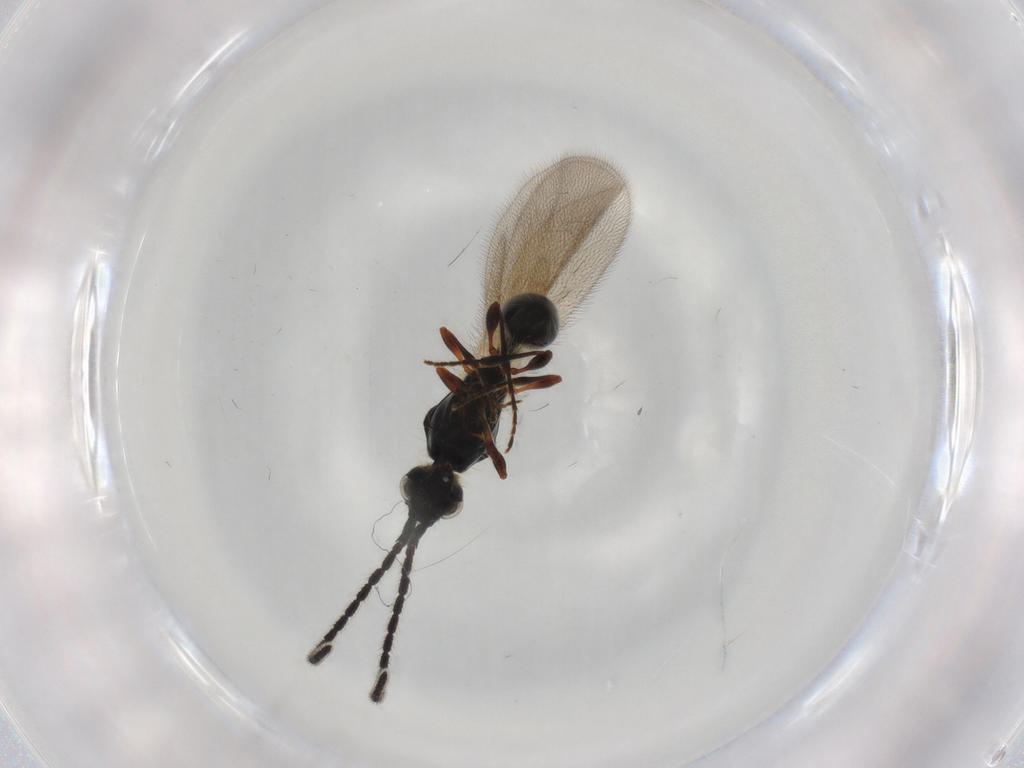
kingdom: Animalia
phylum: Arthropoda
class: Insecta
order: Hymenoptera
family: Diapriidae
